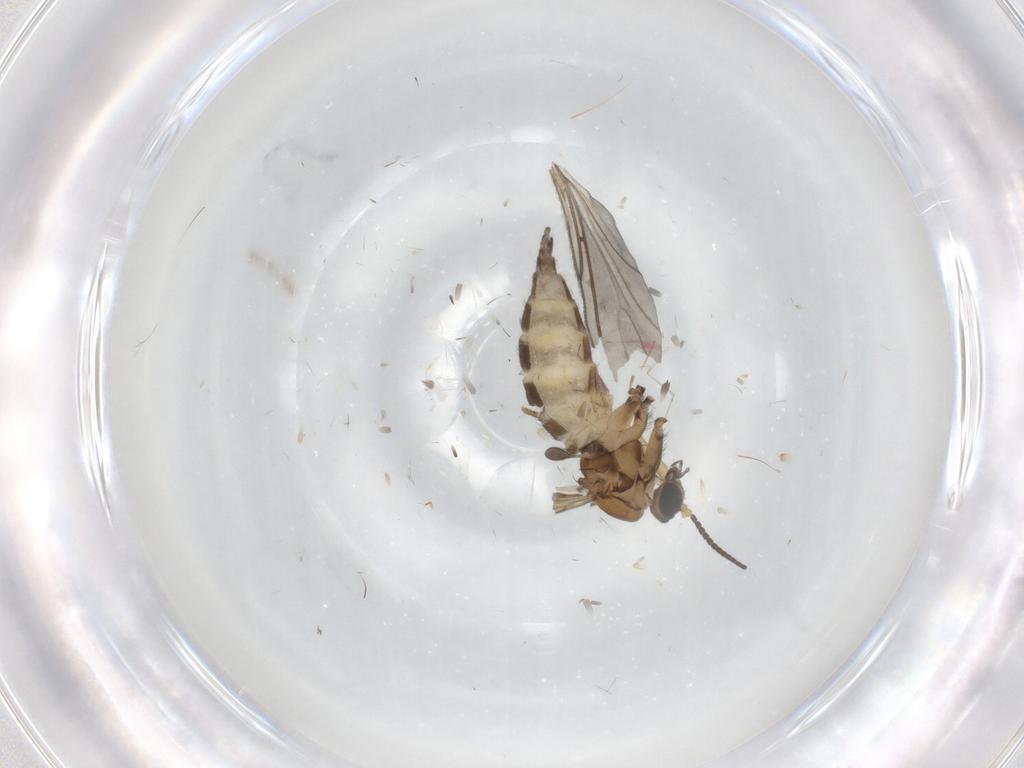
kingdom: Animalia
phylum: Arthropoda
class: Insecta
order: Diptera
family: Sciaridae
